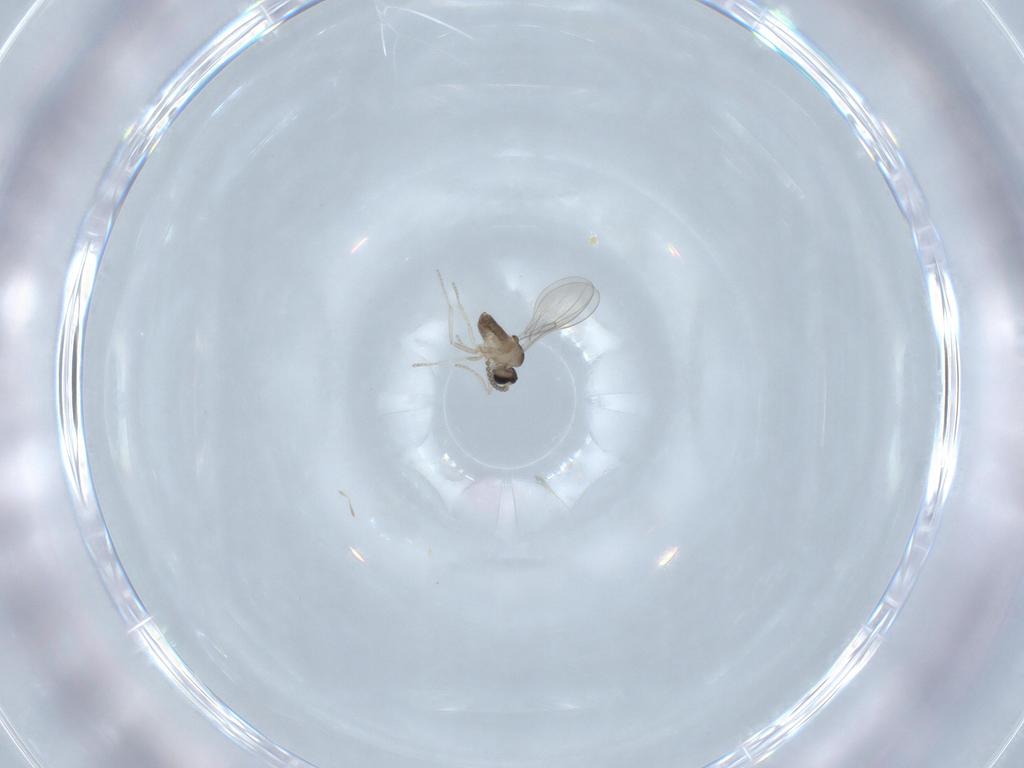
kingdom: Animalia
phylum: Arthropoda
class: Insecta
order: Diptera
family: Cecidomyiidae
